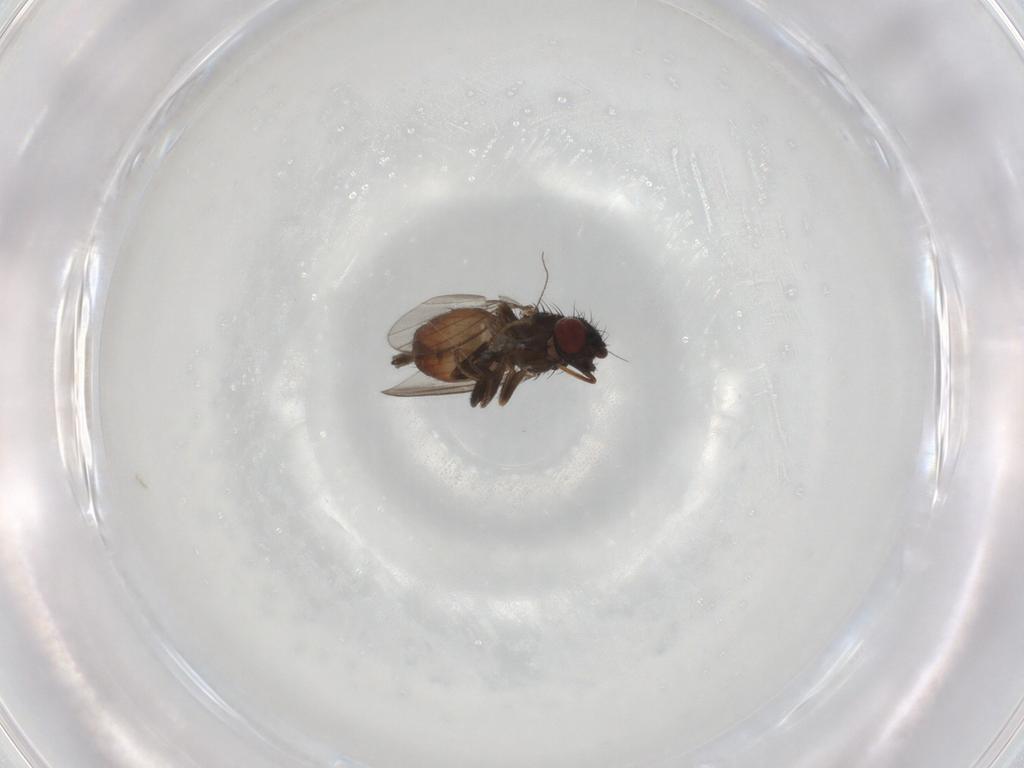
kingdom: Animalia
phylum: Arthropoda
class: Insecta
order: Diptera
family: Milichiidae
